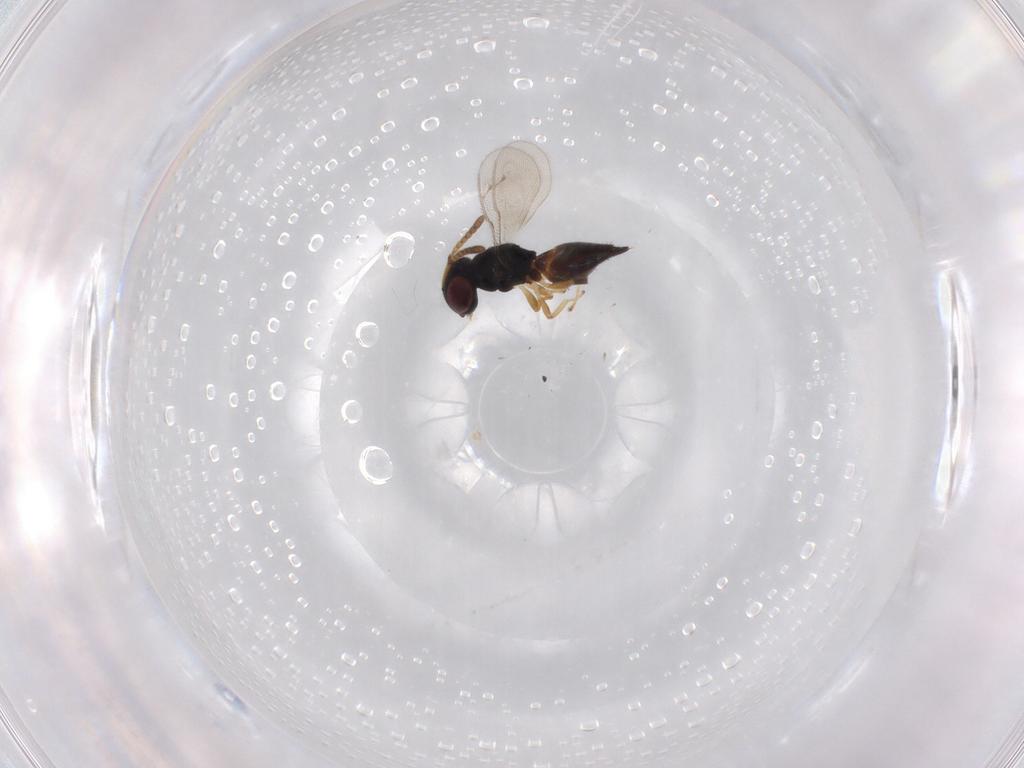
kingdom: Animalia
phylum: Arthropoda
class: Insecta
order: Hymenoptera
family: Pteromalidae
